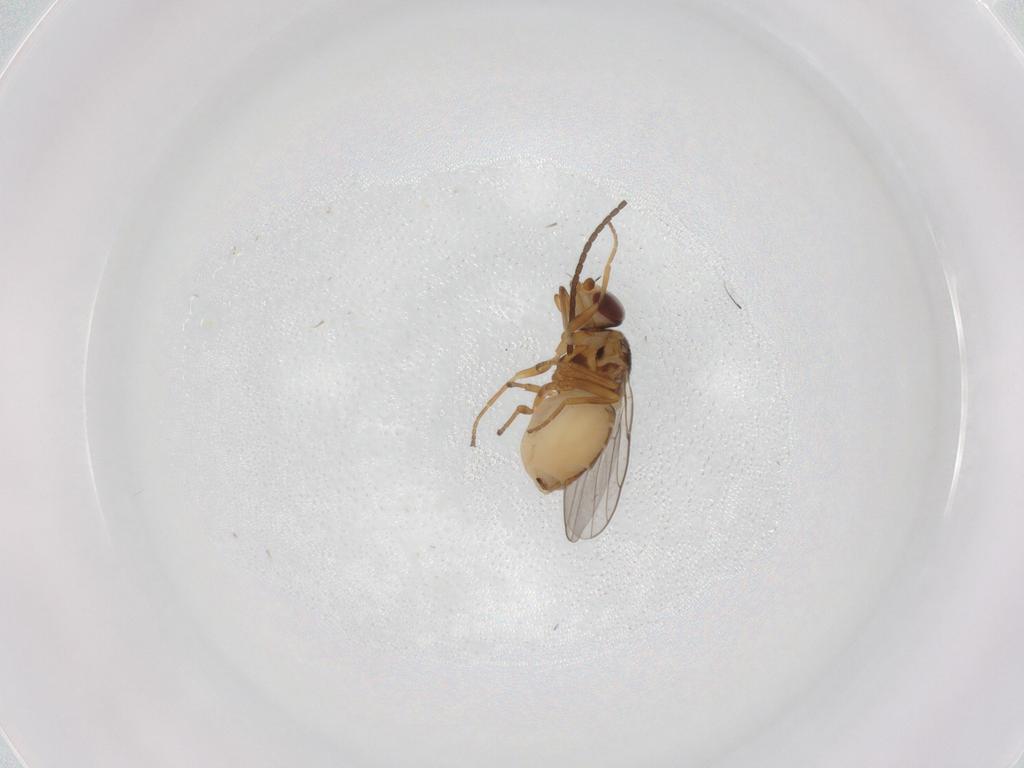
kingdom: Animalia
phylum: Arthropoda
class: Insecta
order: Diptera
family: Chloropidae
